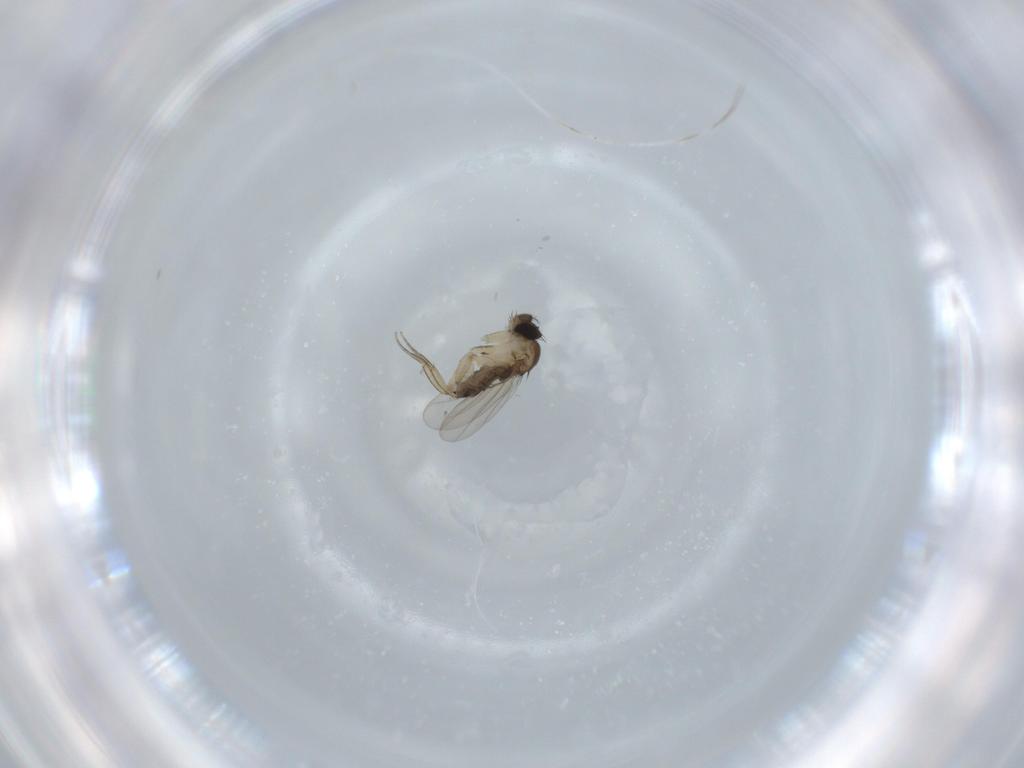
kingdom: Animalia
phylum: Arthropoda
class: Insecta
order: Diptera
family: Phoridae
